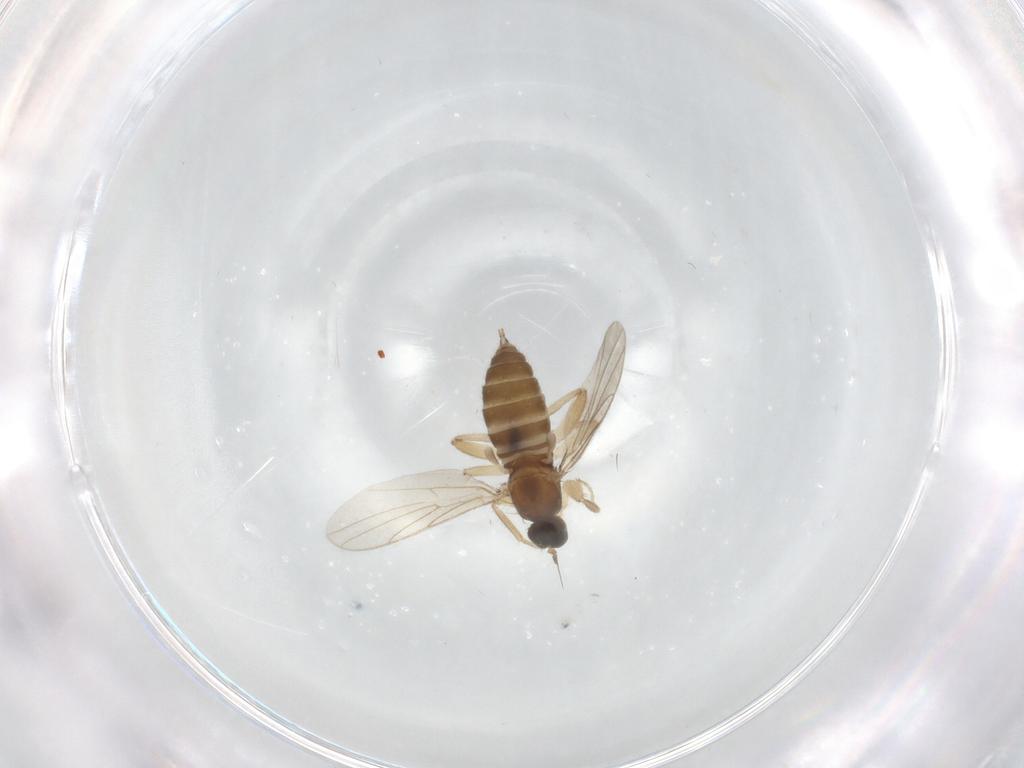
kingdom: Animalia
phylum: Arthropoda
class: Insecta
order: Diptera
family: Hybotidae
